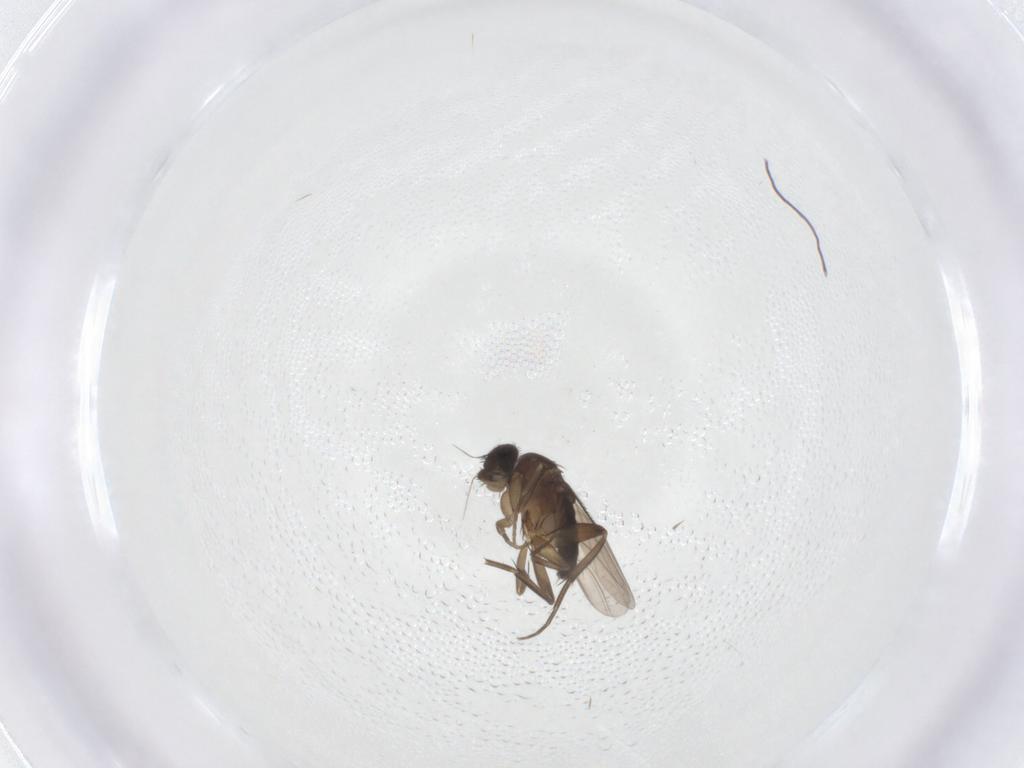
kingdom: Animalia
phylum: Arthropoda
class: Insecta
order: Diptera
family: Phoridae
